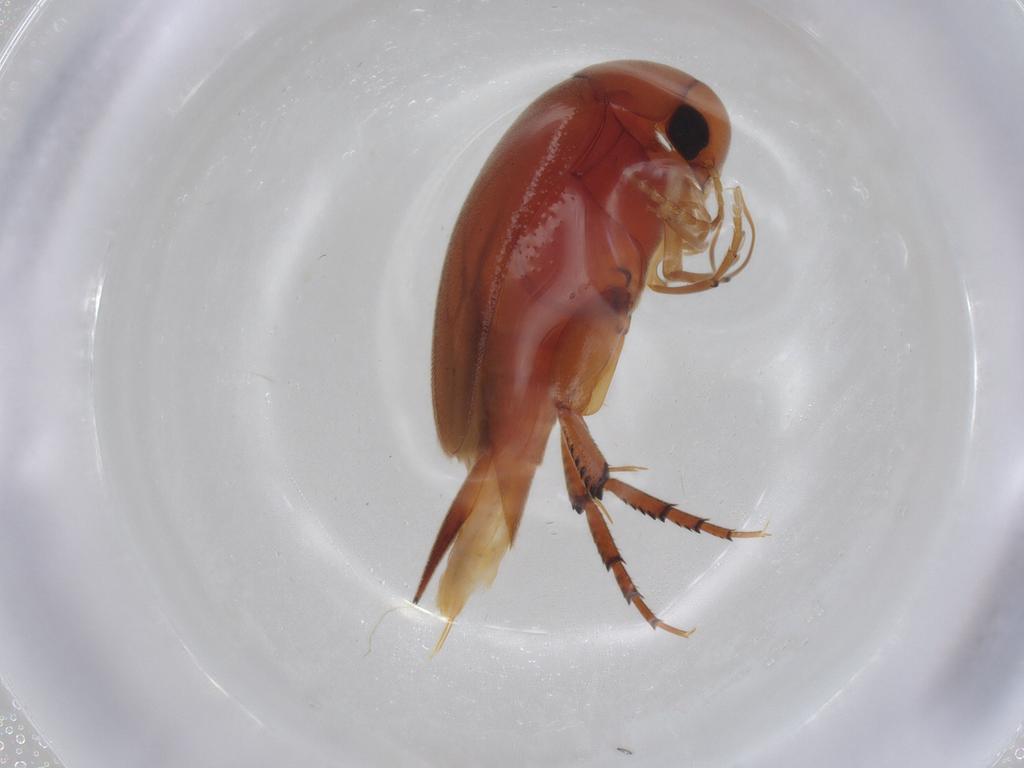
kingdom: Animalia
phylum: Arthropoda
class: Insecta
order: Coleoptera
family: Mordellidae
